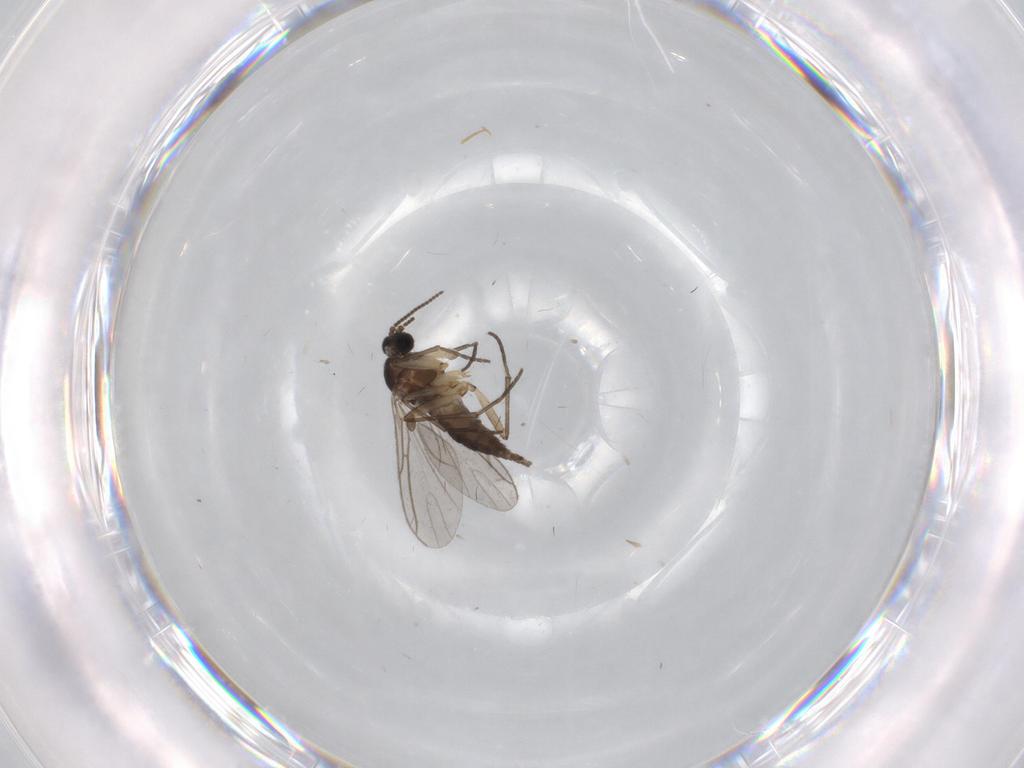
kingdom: Animalia
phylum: Arthropoda
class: Insecta
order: Diptera
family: Sciaridae
